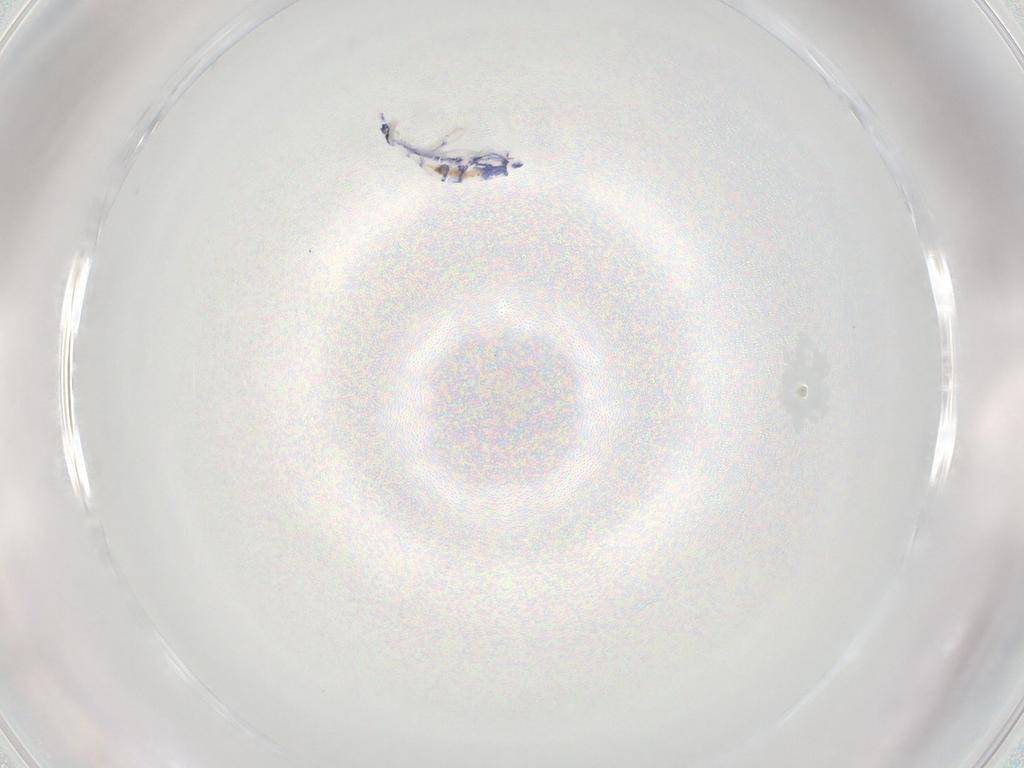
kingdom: Animalia
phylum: Arthropoda
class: Collembola
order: Entomobryomorpha
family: Entomobryidae
